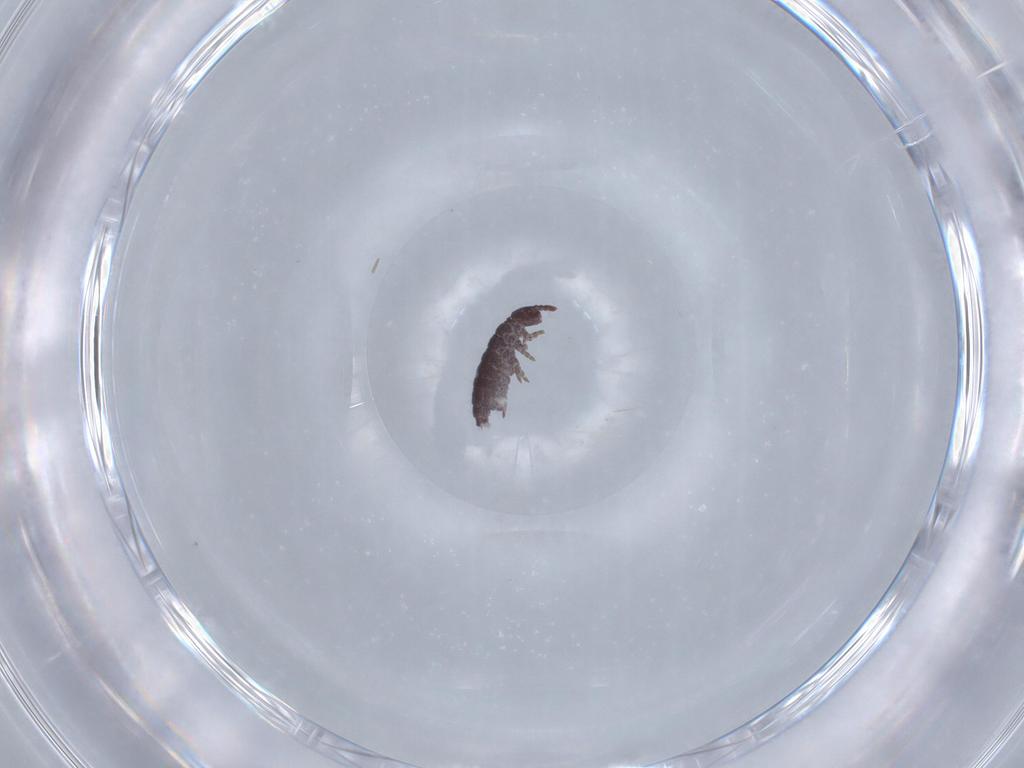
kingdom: Animalia
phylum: Arthropoda
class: Collembola
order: Poduromorpha
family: Hypogastruridae
